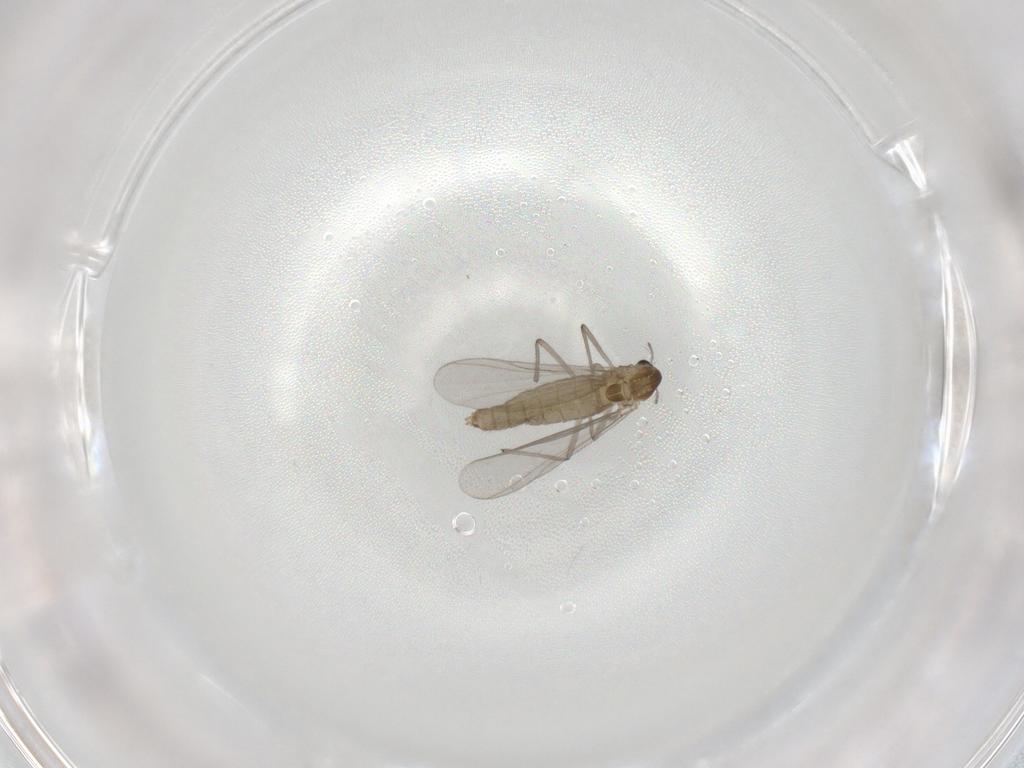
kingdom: Animalia
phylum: Arthropoda
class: Insecta
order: Diptera
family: Chironomidae
